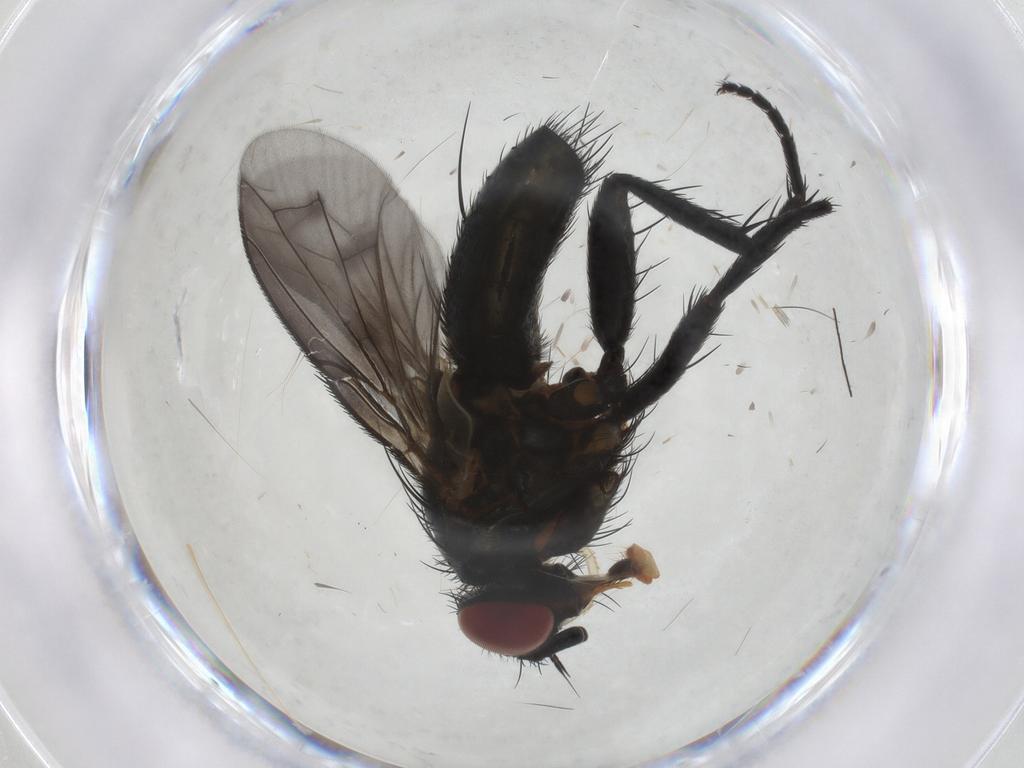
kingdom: Animalia
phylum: Arthropoda
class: Insecta
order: Diptera
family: Tachinidae
